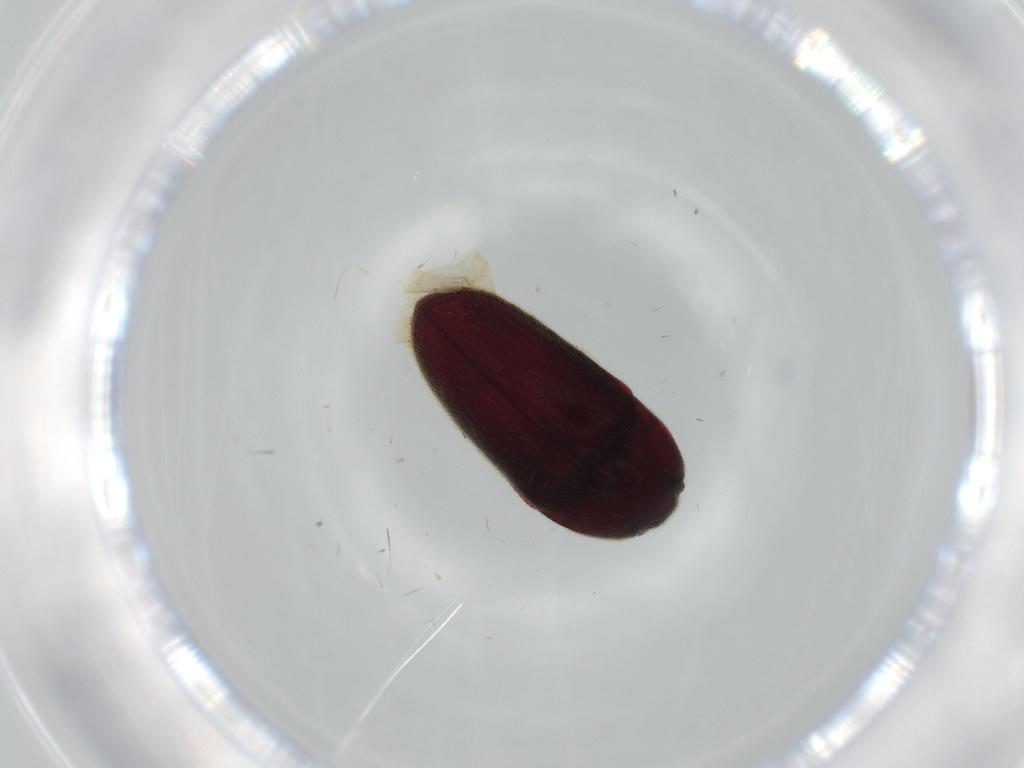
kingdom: Animalia
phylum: Arthropoda
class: Insecta
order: Coleoptera
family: Throscidae
